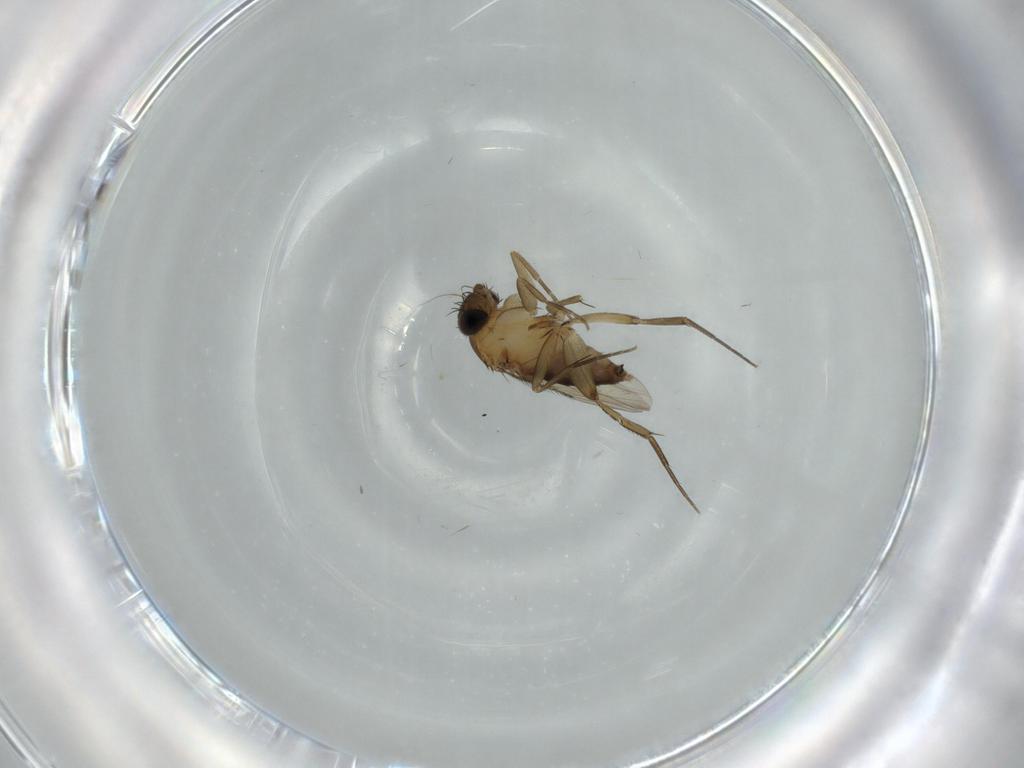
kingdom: Animalia
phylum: Arthropoda
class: Insecta
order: Diptera
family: Phoridae
